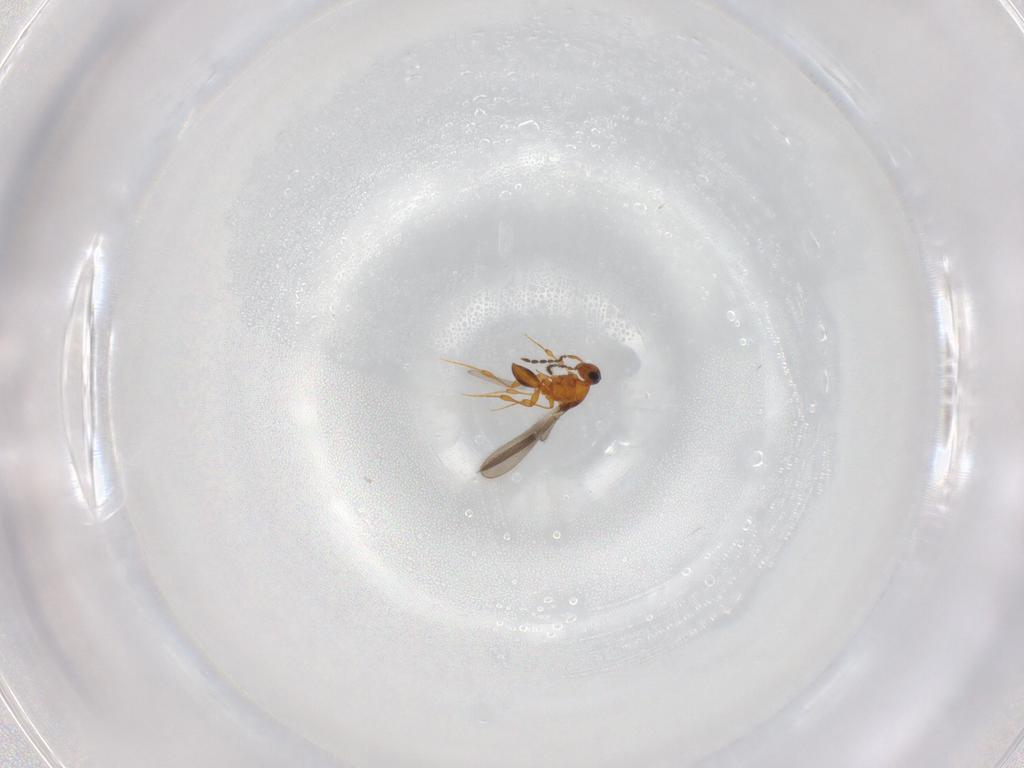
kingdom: Animalia
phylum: Arthropoda
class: Insecta
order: Hymenoptera
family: Platygastridae
